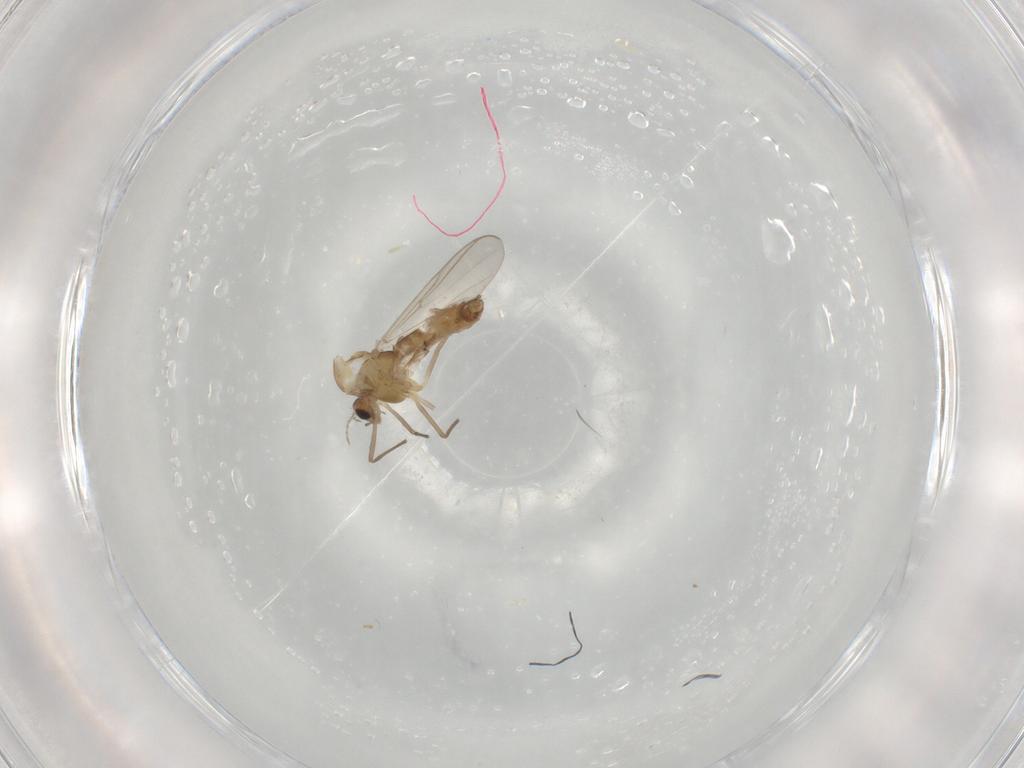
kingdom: Animalia
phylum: Arthropoda
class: Insecta
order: Diptera
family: Chironomidae
